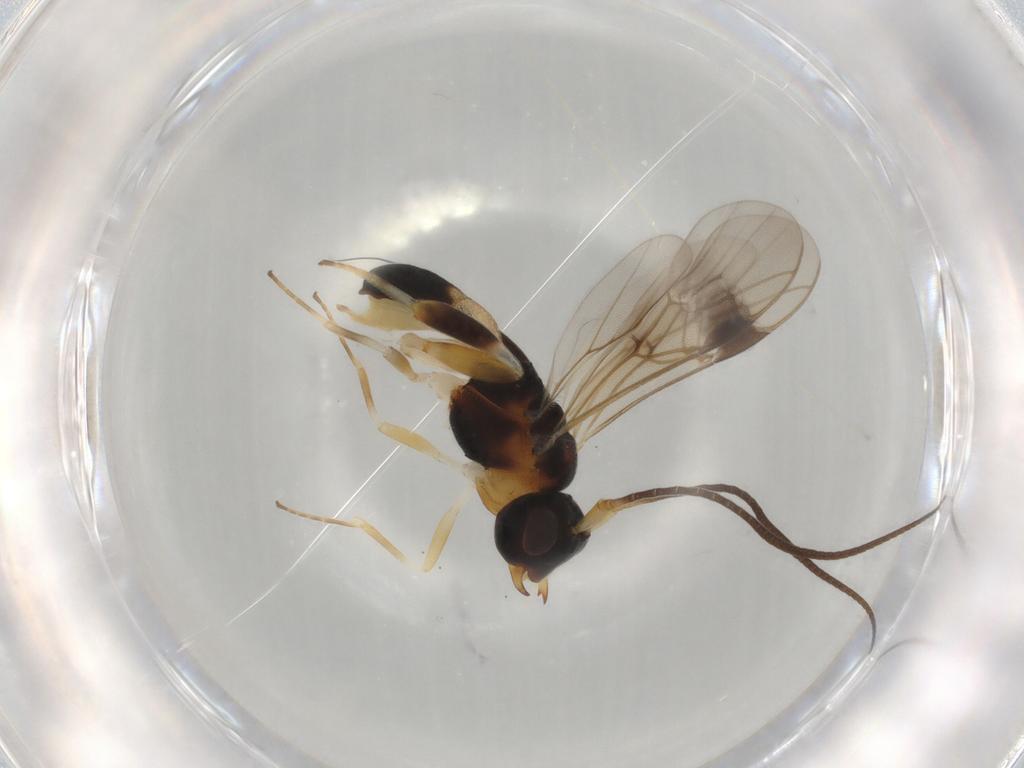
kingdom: Animalia
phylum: Arthropoda
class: Insecta
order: Hymenoptera
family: Braconidae
